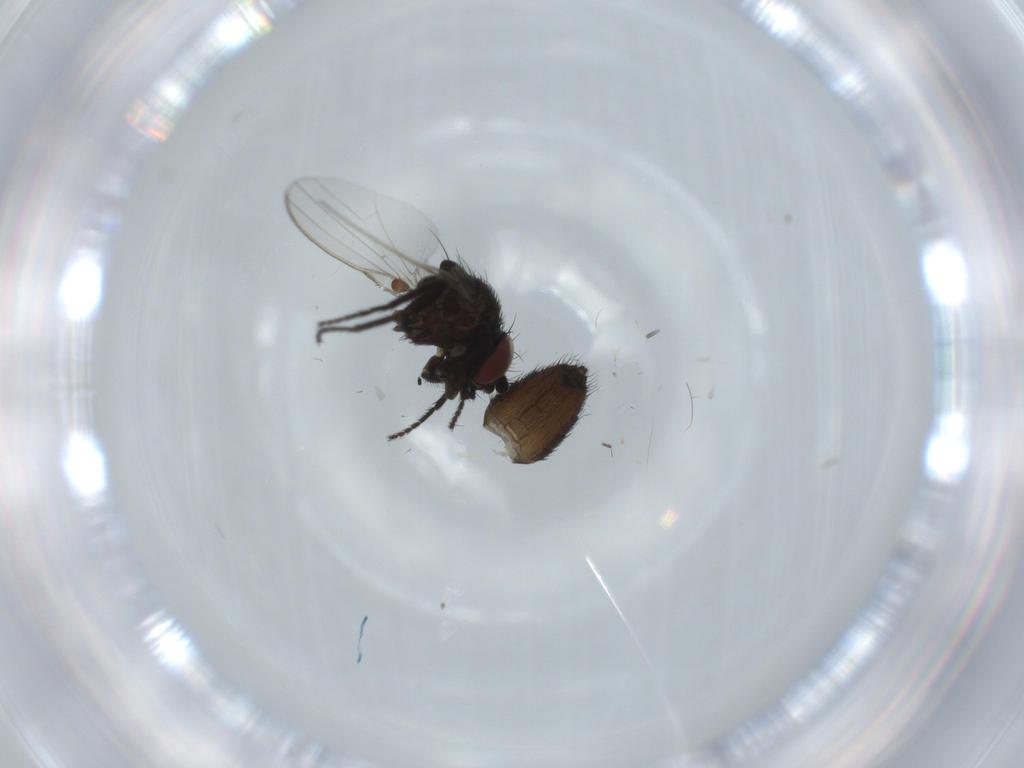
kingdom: Animalia
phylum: Arthropoda
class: Insecta
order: Diptera
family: Milichiidae
